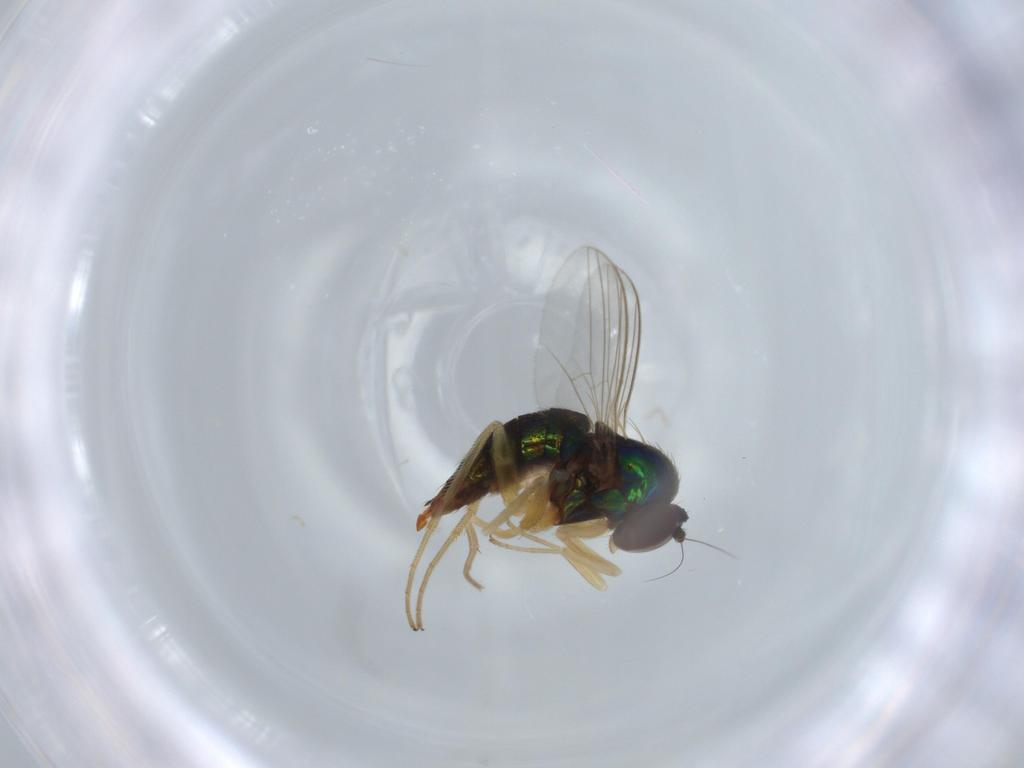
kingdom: Animalia
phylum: Arthropoda
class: Insecta
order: Diptera
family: Dolichopodidae
